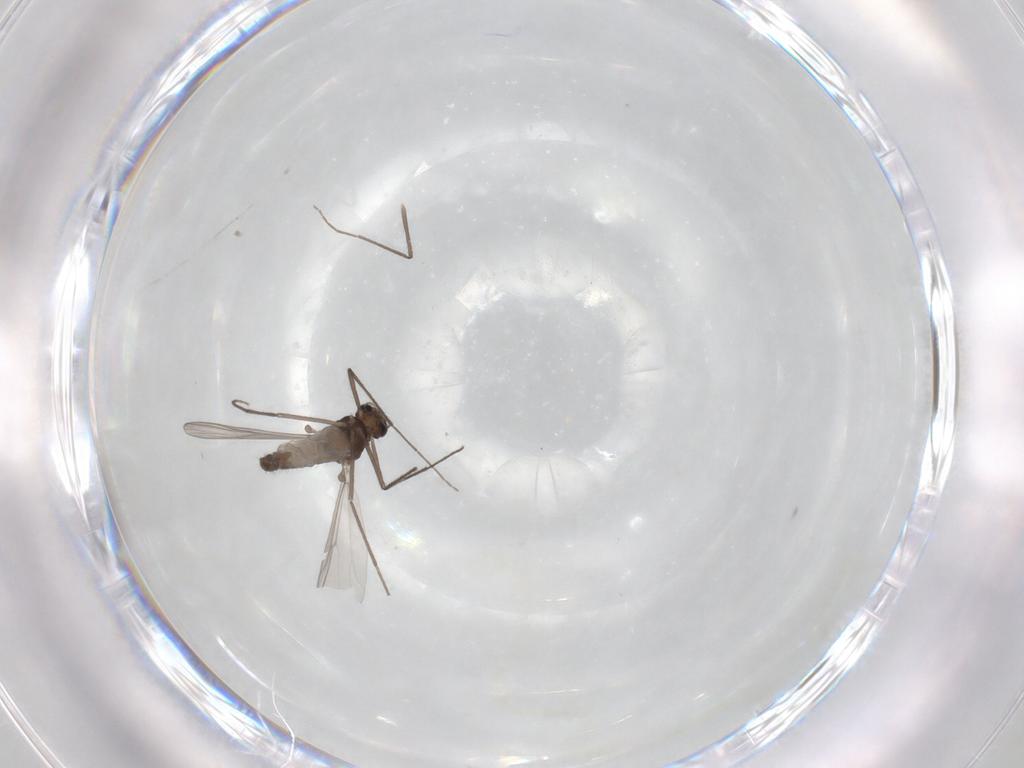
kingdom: Animalia
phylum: Arthropoda
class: Insecta
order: Diptera
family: Chironomidae
